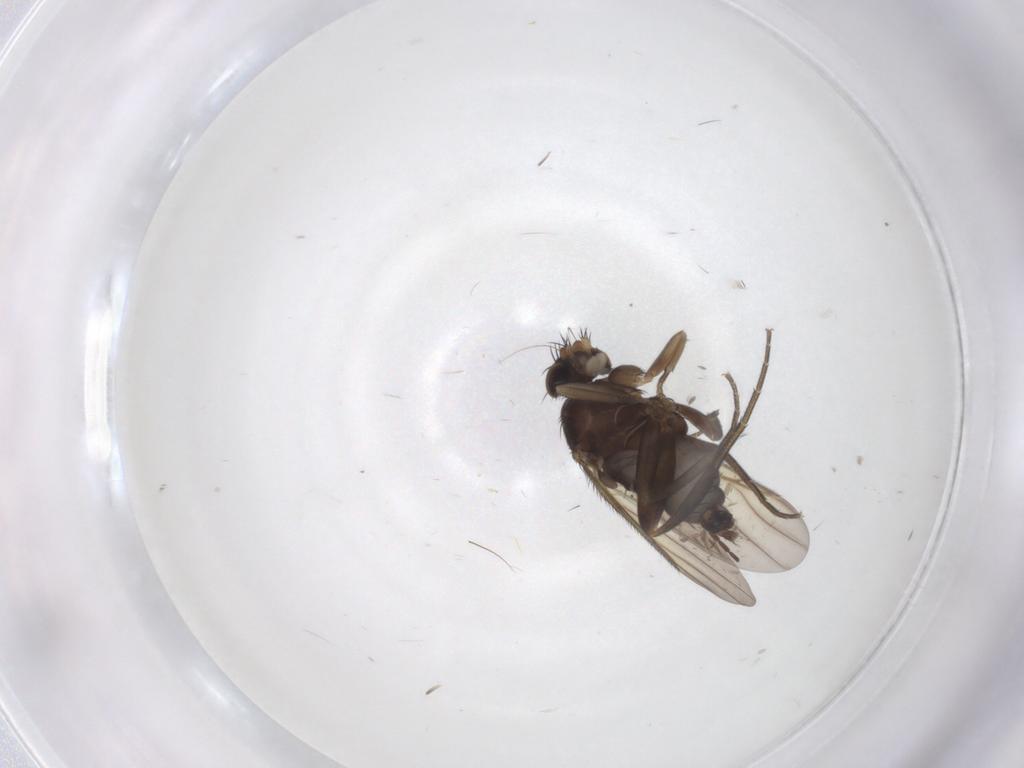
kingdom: Animalia
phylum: Arthropoda
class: Insecta
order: Diptera
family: Phoridae
